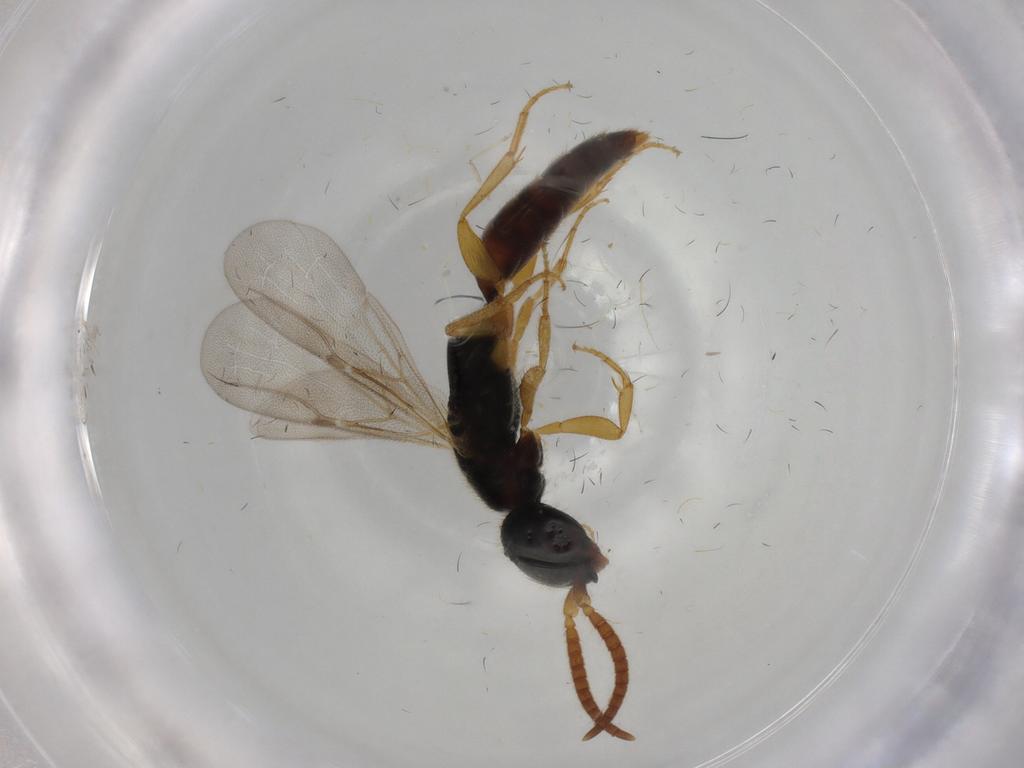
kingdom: Animalia
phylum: Arthropoda
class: Insecta
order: Hymenoptera
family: Bethylidae
